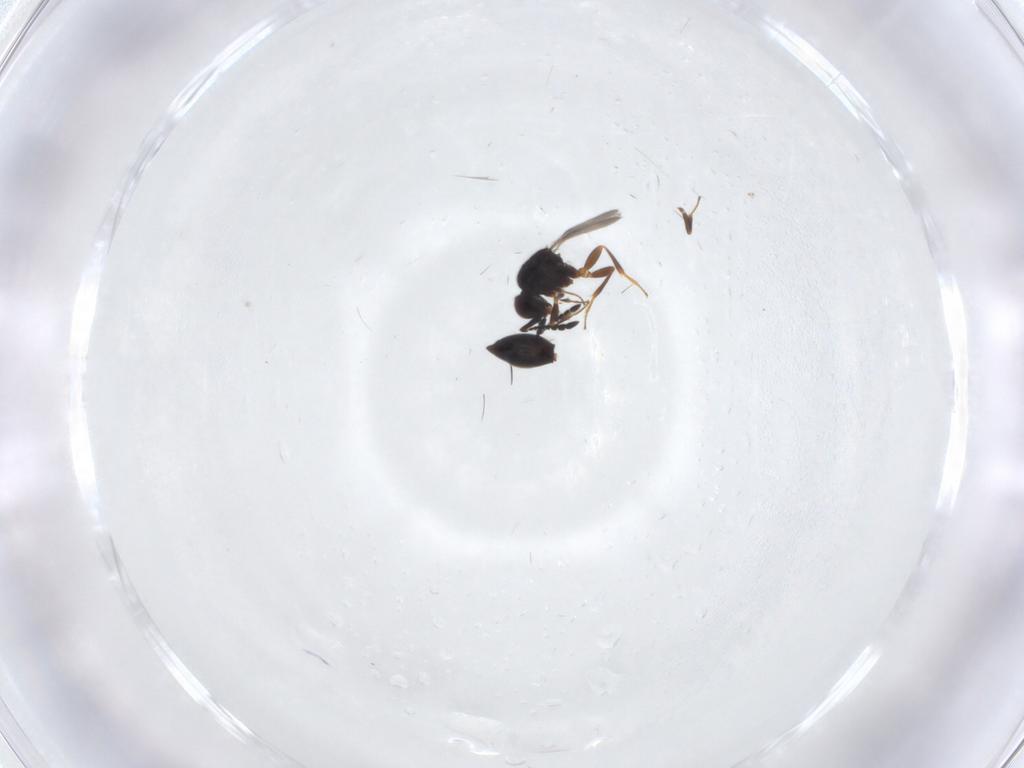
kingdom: Animalia
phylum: Arthropoda
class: Insecta
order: Hymenoptera
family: Ceraphronidae
